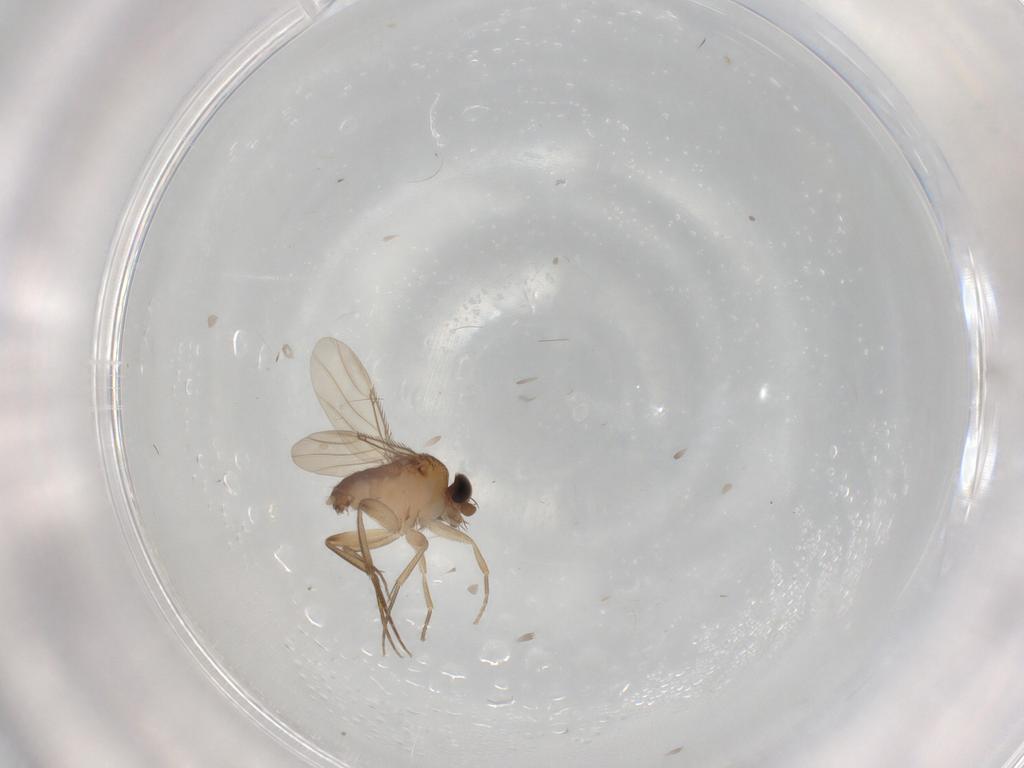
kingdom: Animalia
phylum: Arthropoda
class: Insecta
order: Diptera
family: Phoridae
